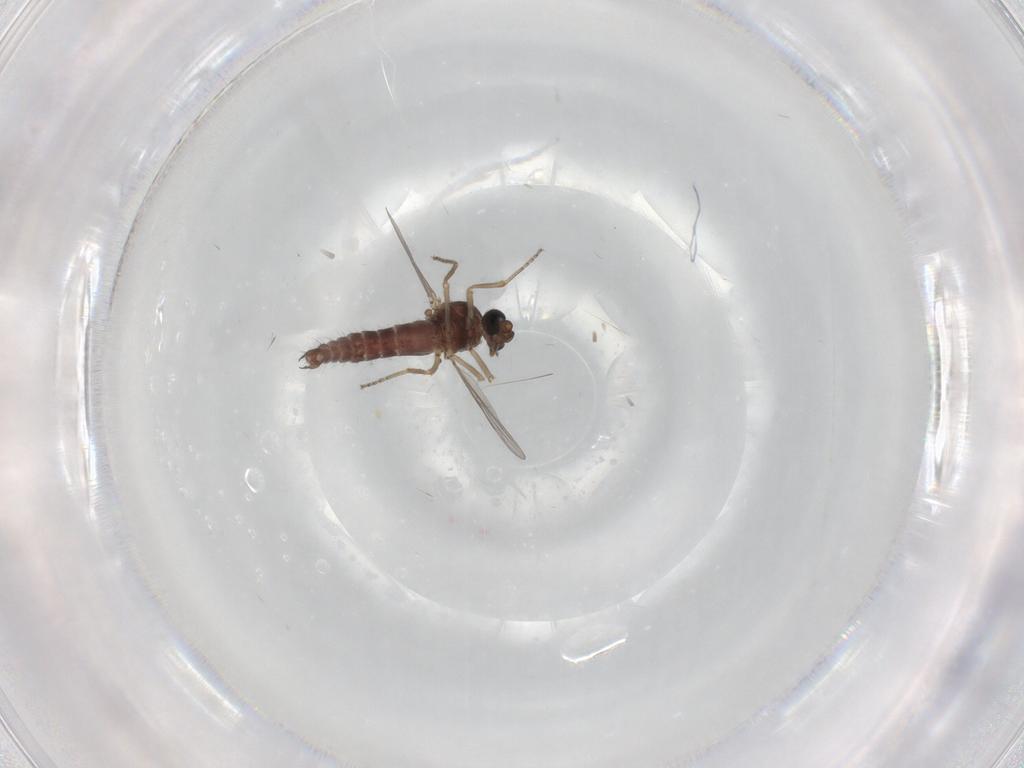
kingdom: Animalia
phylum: Arthropoda
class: Insecta
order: Diptera
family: Ceratopogonidae
